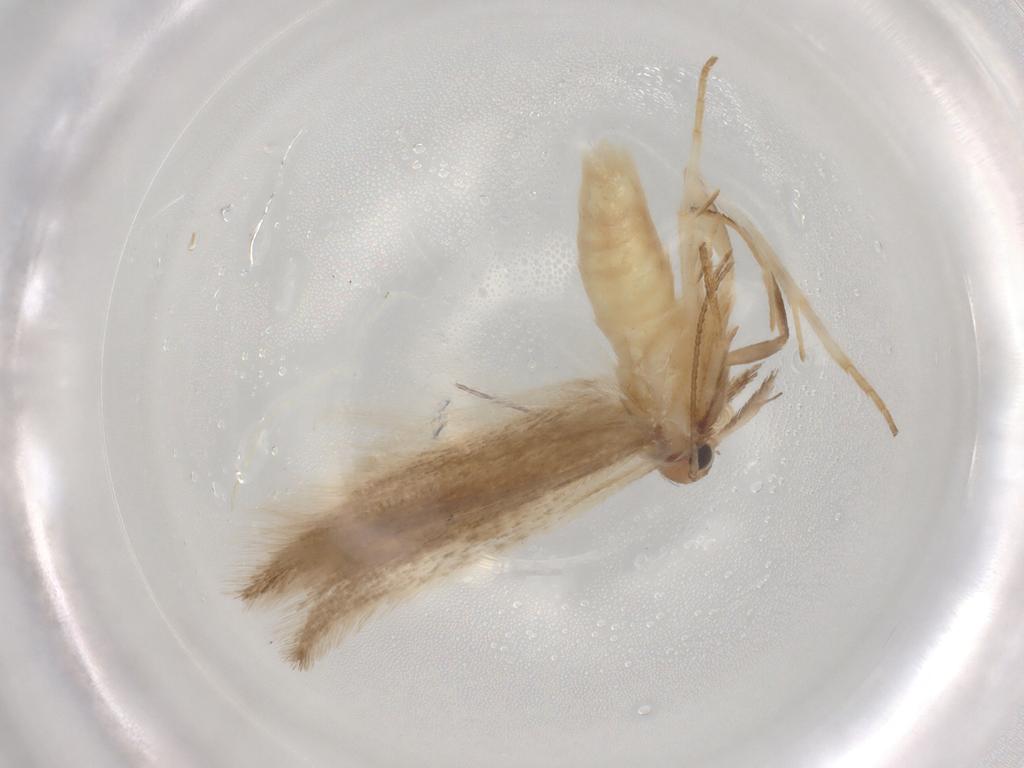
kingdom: Animalia
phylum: Arthropoda
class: Insecta
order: Lepidoptera
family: Gelechiidae
